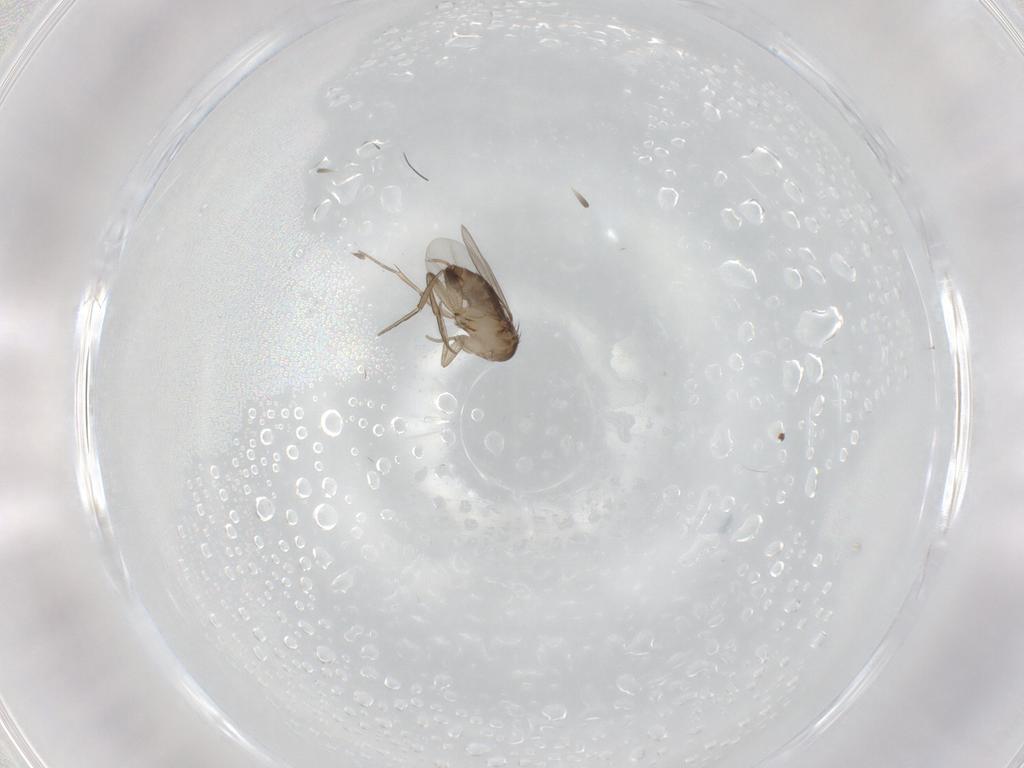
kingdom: Animalia
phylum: Arthropoda
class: Insecta
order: Diptera
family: Phoridae
